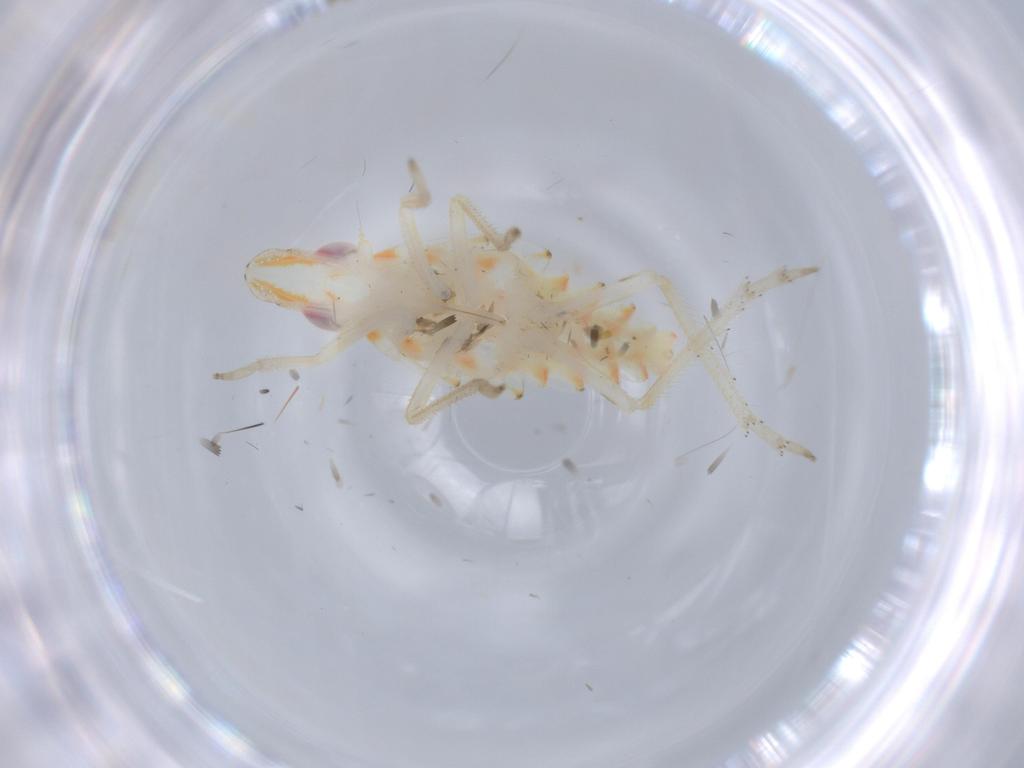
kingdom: Animalia
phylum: Arthropoda
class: Insecta
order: Hemiptera
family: Tropiduchidae
